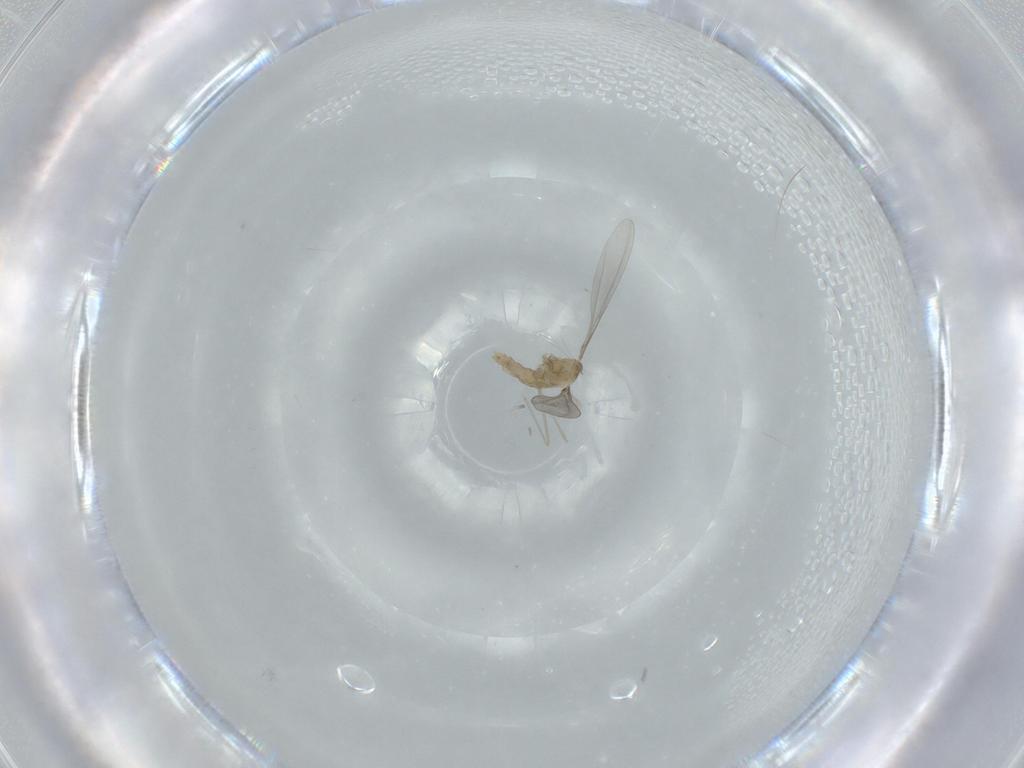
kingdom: Animalia
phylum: Arthropoda
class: Insecta
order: Diptera
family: Cecidomyiidae
